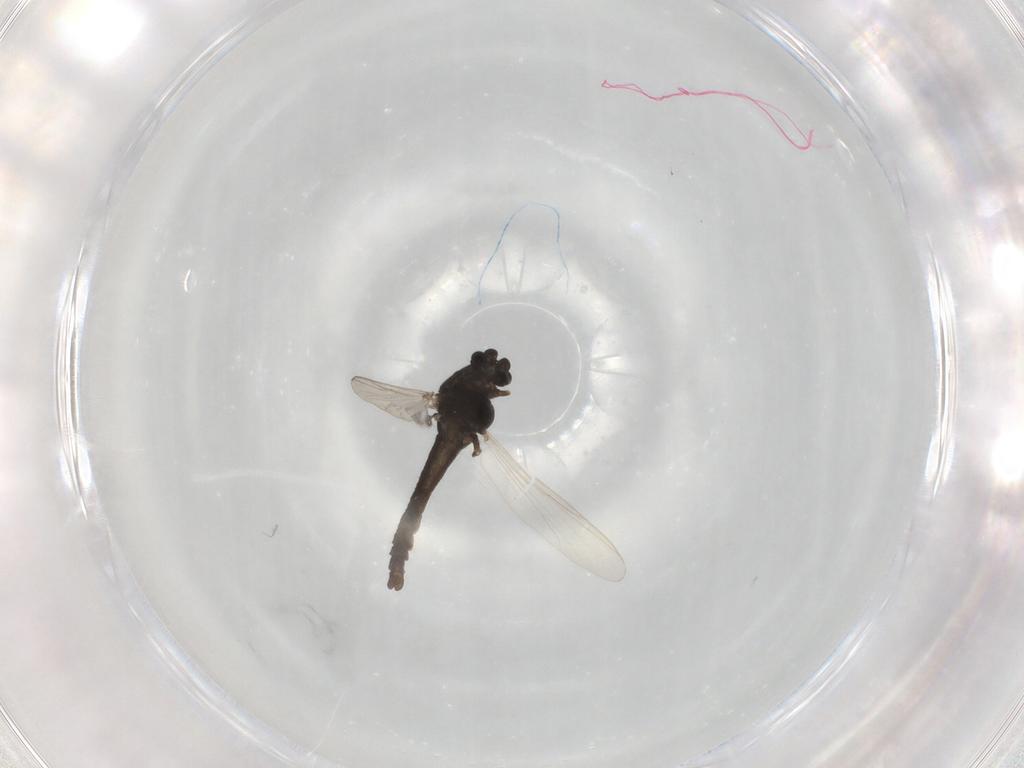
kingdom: Animalia
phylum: Arthropoda
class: Insecta
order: Diptera
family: Chironomidae
